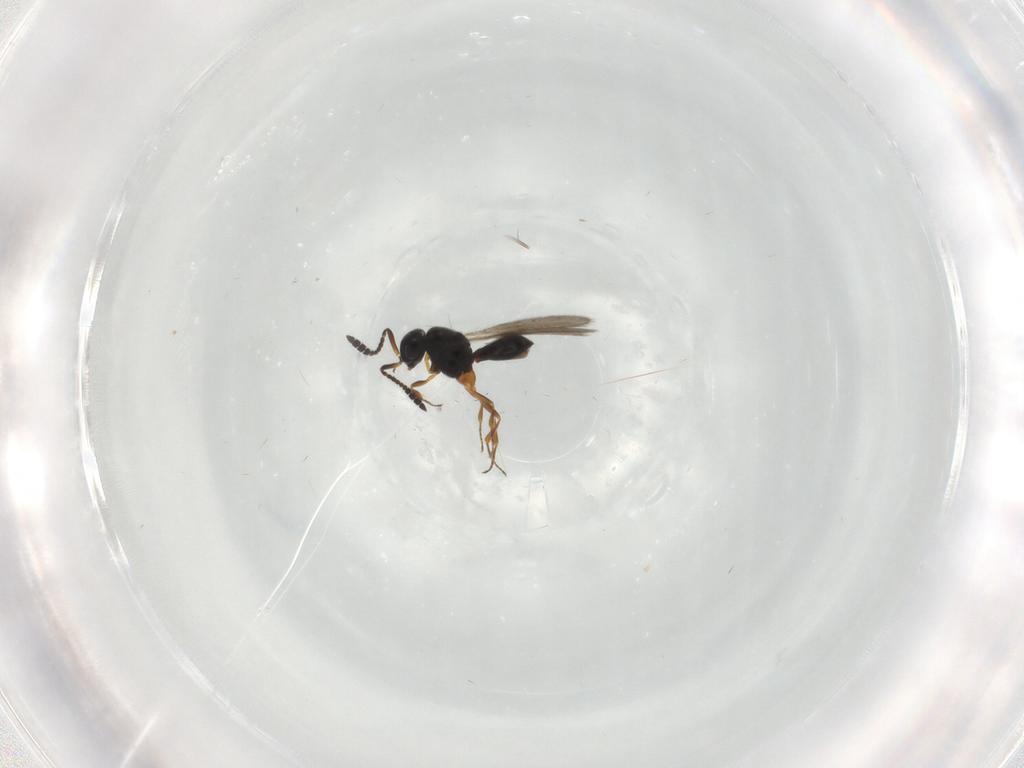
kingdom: Animalia
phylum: Arthropoda
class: Insecta
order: Hymenoptera
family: Scelionidae
